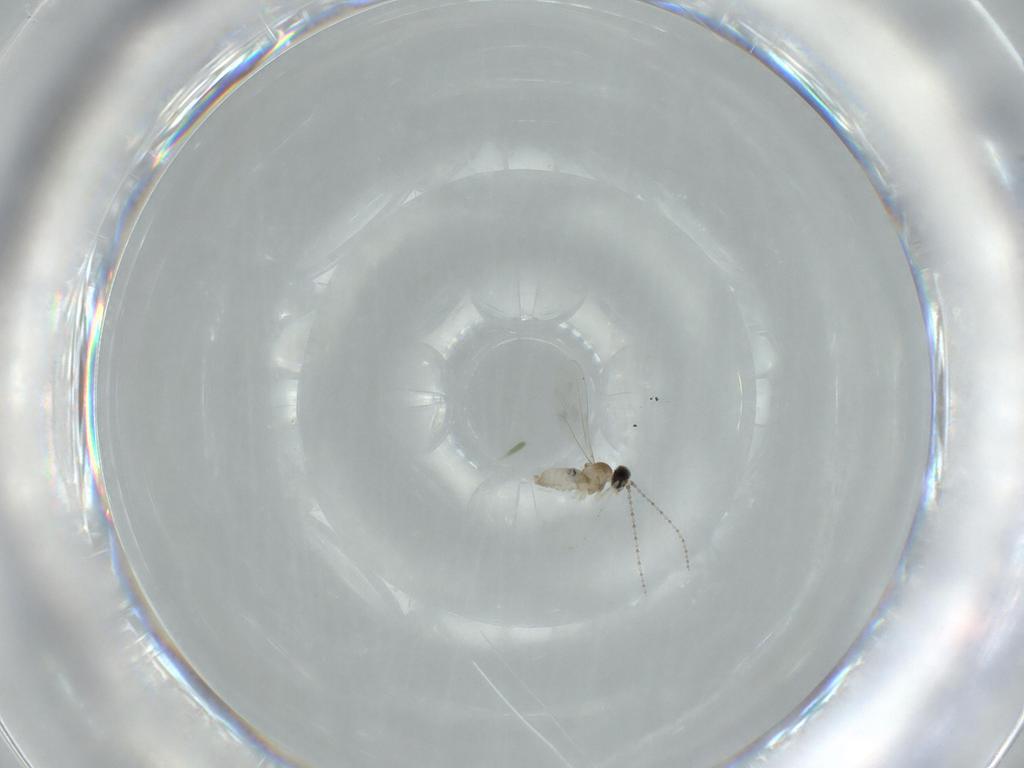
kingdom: Animalia
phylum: Arthropoda
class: Insecta
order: Diptera
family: Cecidomyiidae
